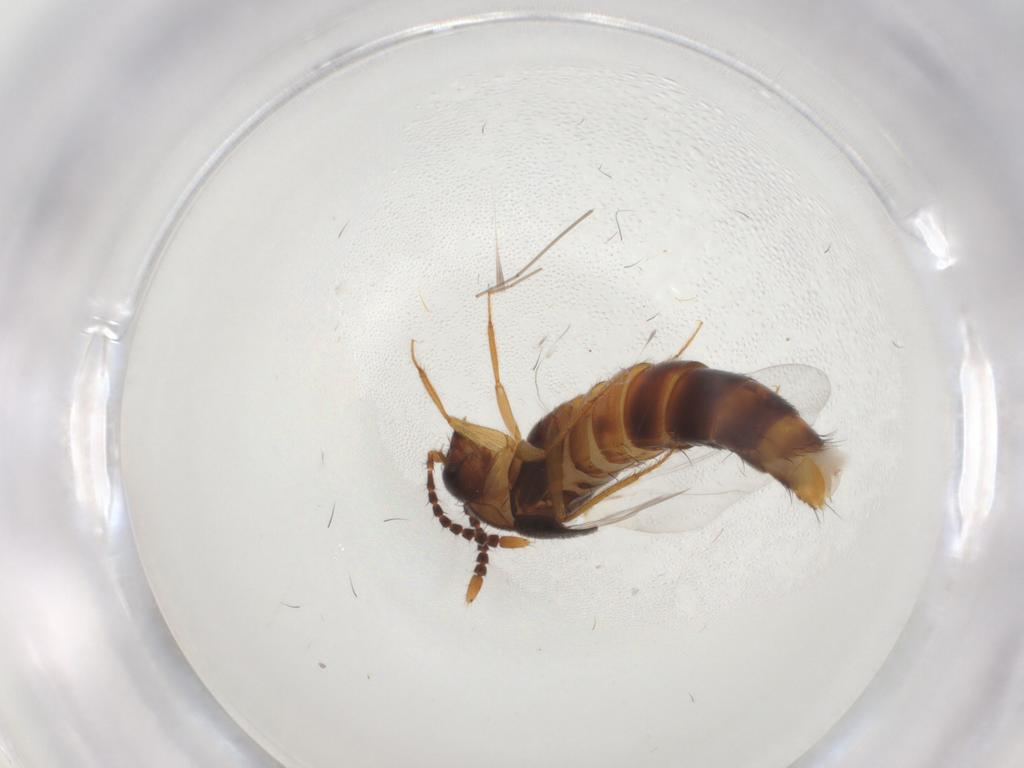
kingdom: Animalia
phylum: Arthropoda
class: Insecta
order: Coleoptera
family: Staphylinidae
